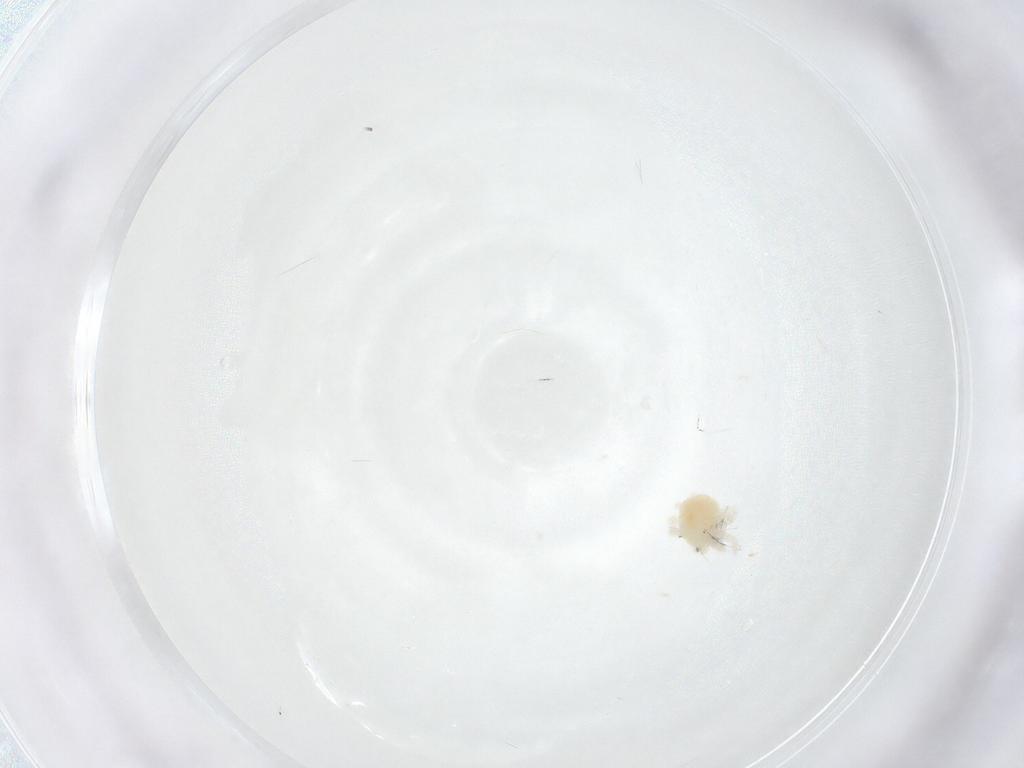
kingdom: Animalia
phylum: Arthropoda
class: Arachnida
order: Trombidiformes
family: Anystidae
